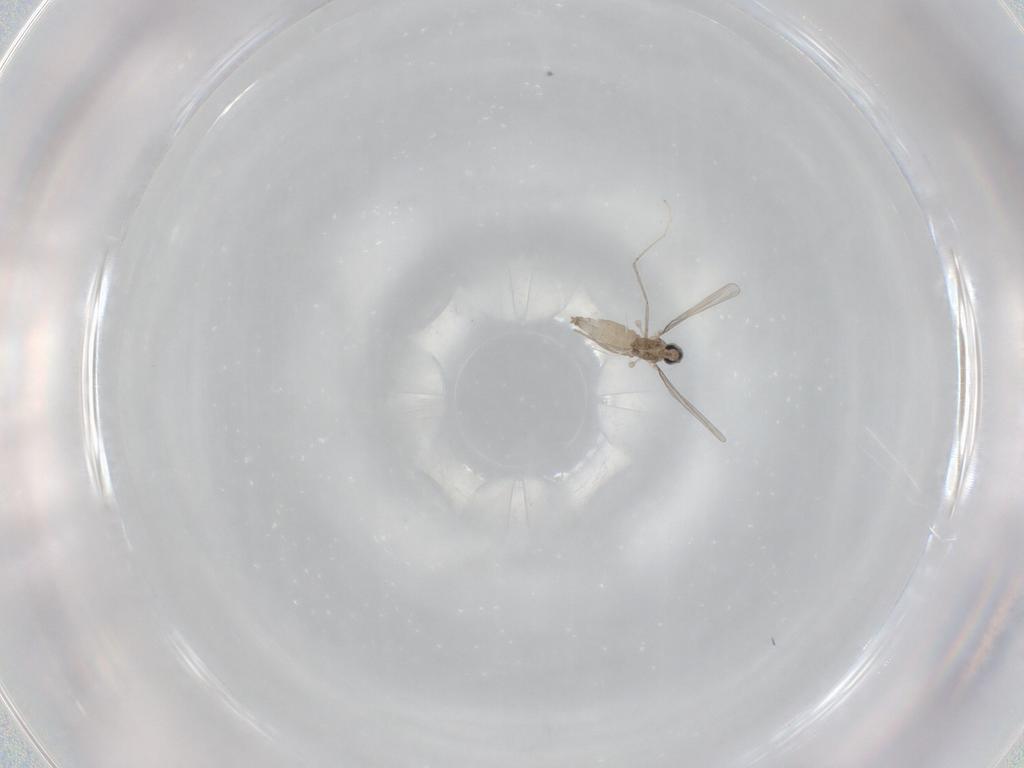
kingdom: Animalia
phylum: Arthropoda
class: Insecta
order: Diptera
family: Cecidomyiidae
